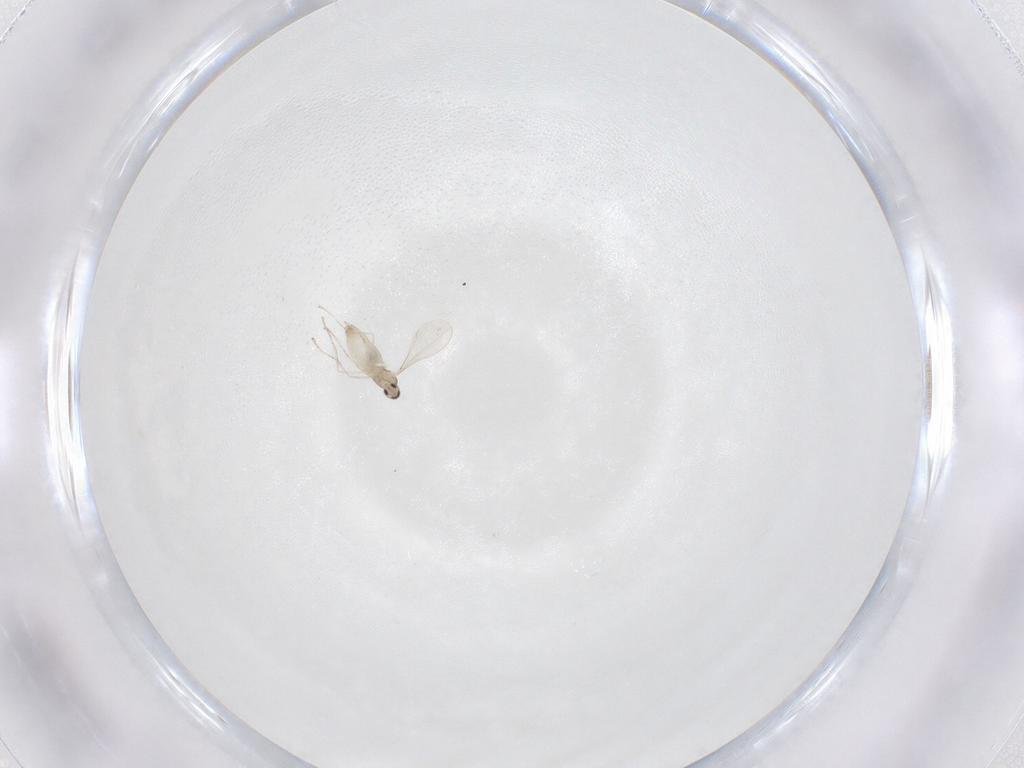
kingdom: Animalia
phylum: Arthropoda
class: Insecta
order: Diptera
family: Cecidomyiidae
